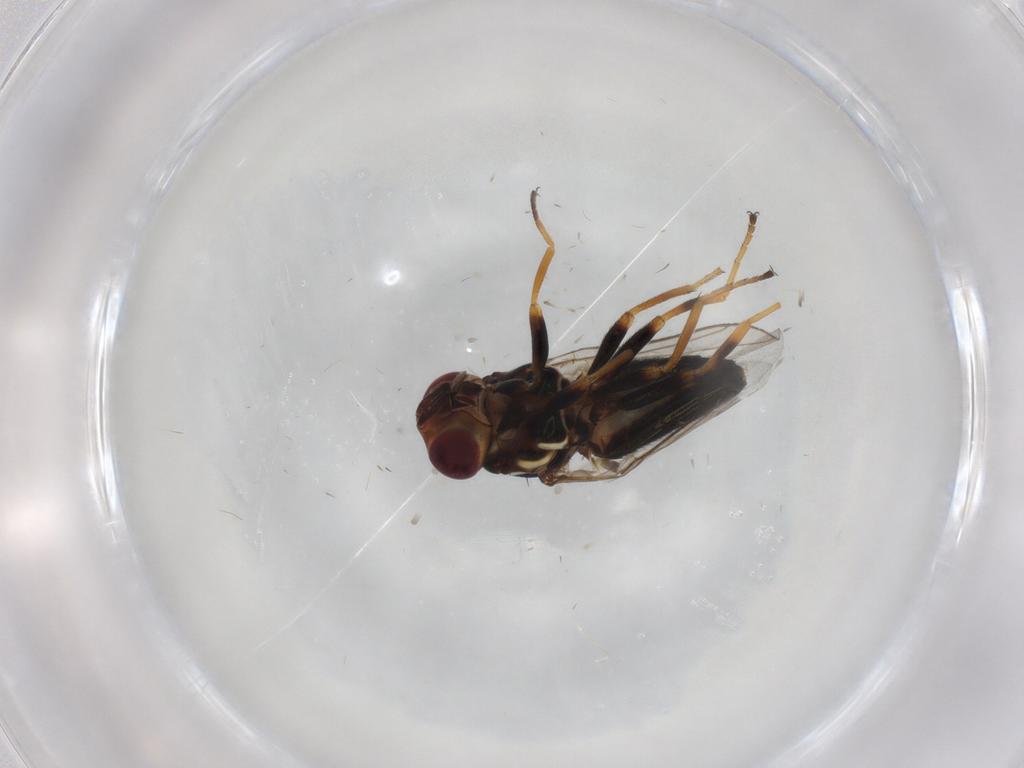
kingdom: Animalia
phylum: Arthropoda
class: Insecta
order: Diptera
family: Chloropidae
